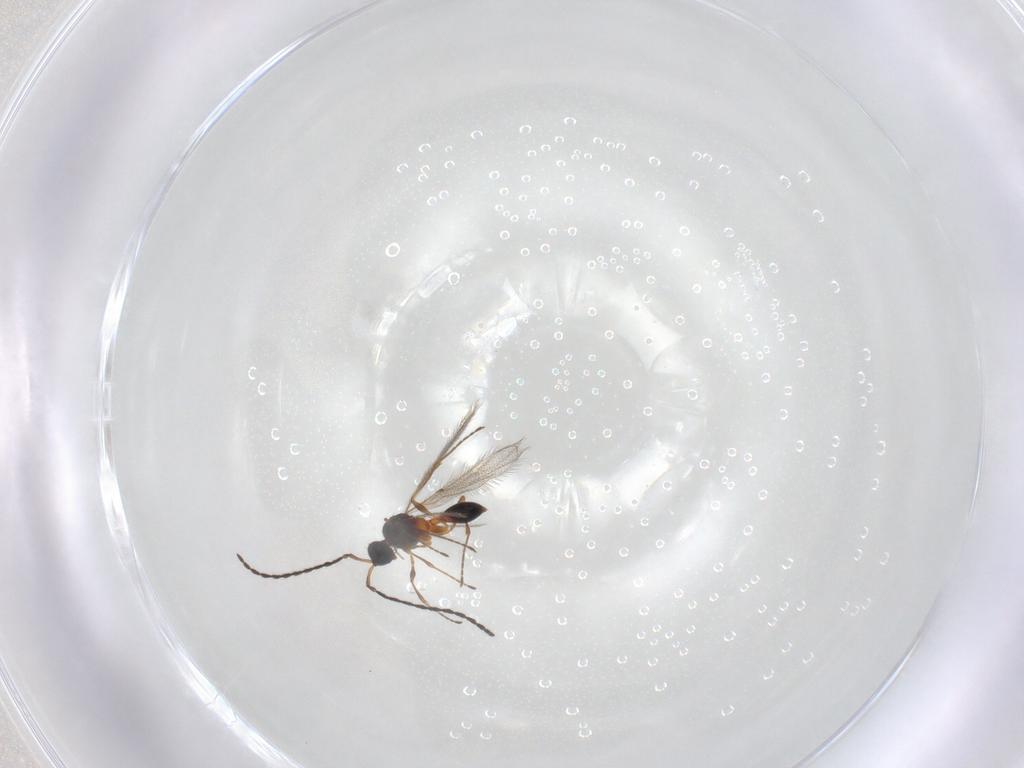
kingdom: Animalia
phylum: Arthropoda
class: Insecta
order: Hymenoptera
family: Diapriidae
